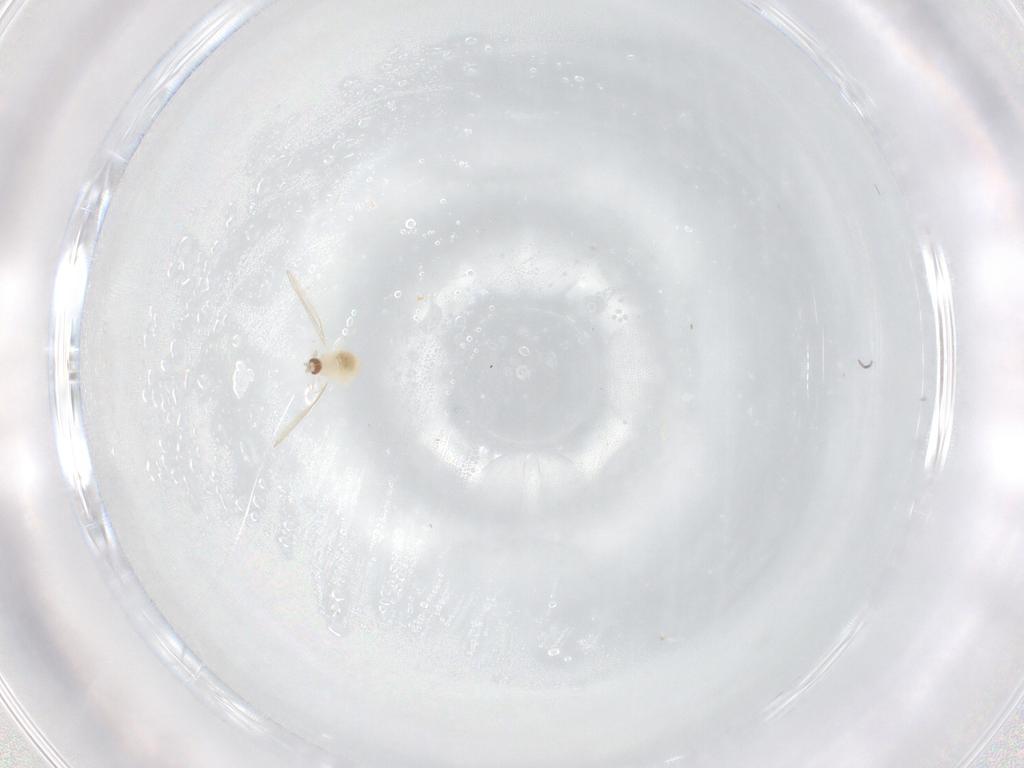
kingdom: Animalia
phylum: Arthropoda
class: Insecta
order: Diptera
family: Cecidomyiidae
